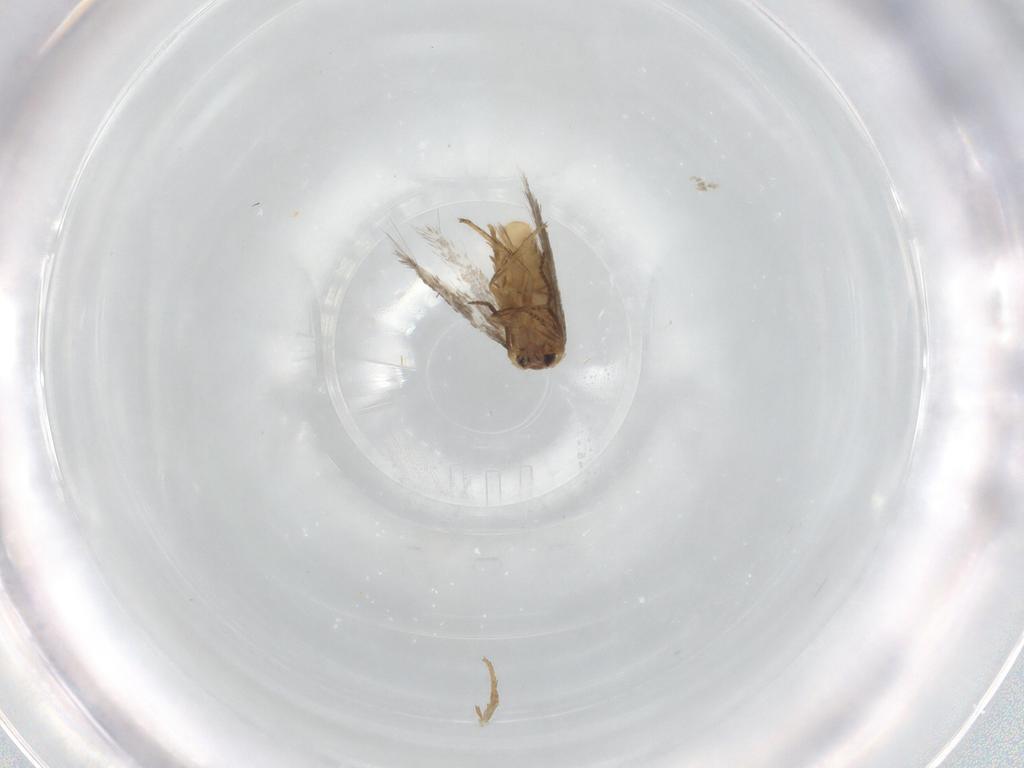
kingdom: Animalia
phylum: Arthropoda
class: Insecta
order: Lepidoptera
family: Nepticulidae
